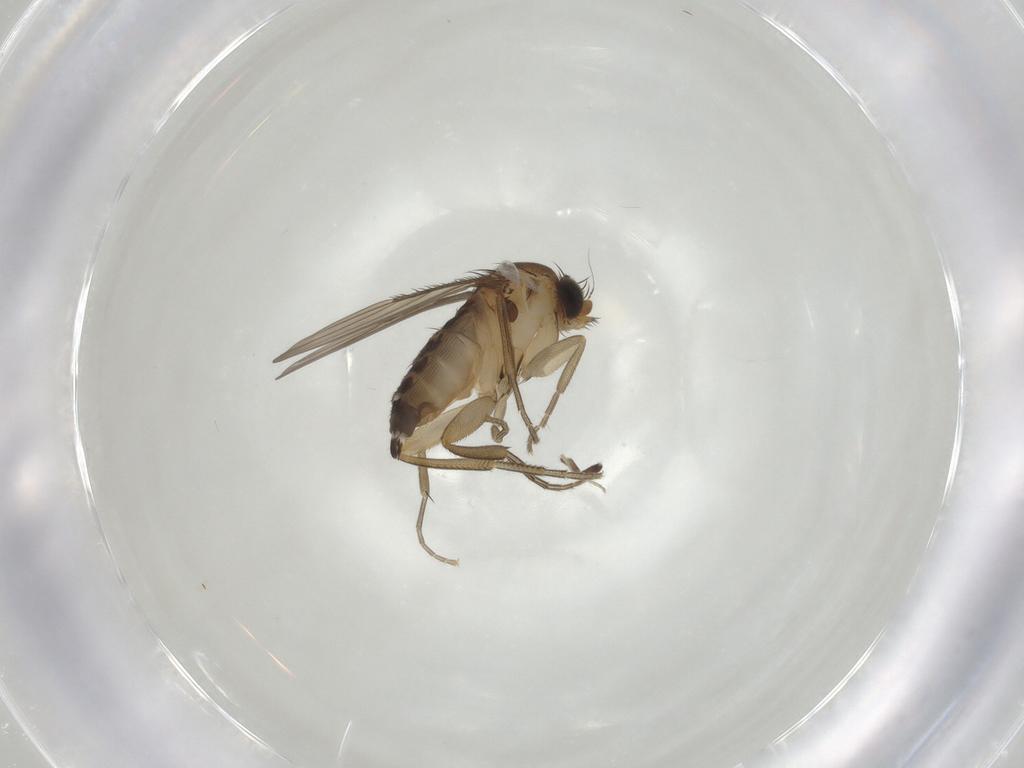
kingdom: Animalia
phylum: Arthropoda
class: Insecta
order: Diptera
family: Phoridae
